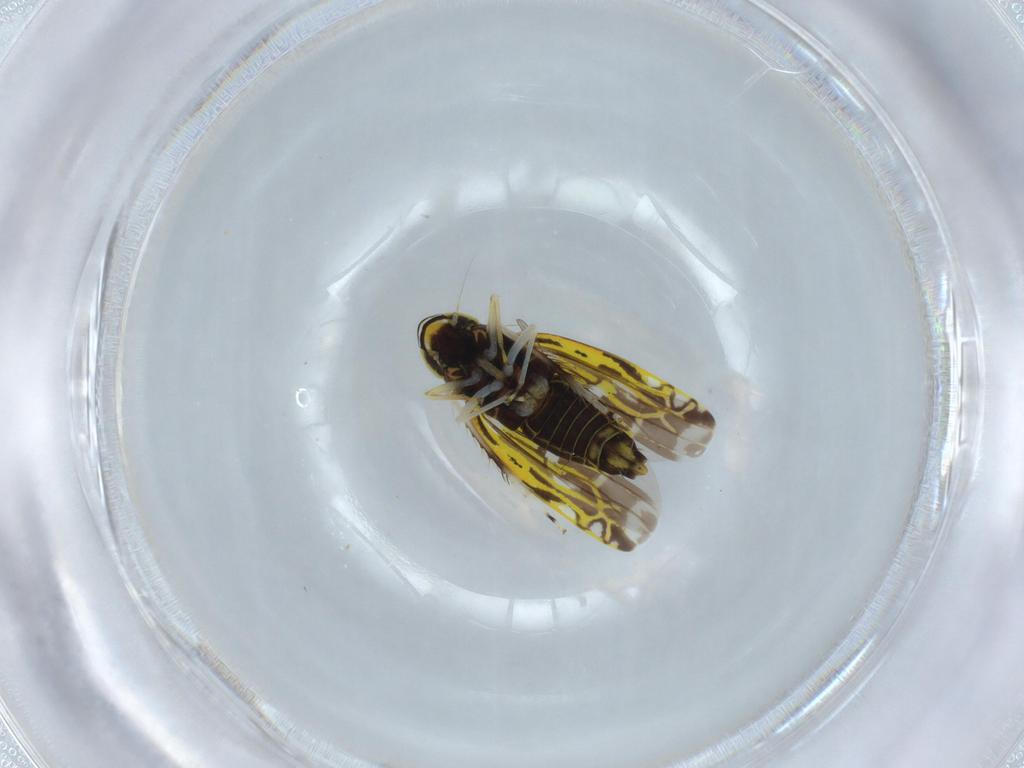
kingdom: Animalia
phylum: Arthropoda
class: Insecta
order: Hemiptera
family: Cicadellidae
